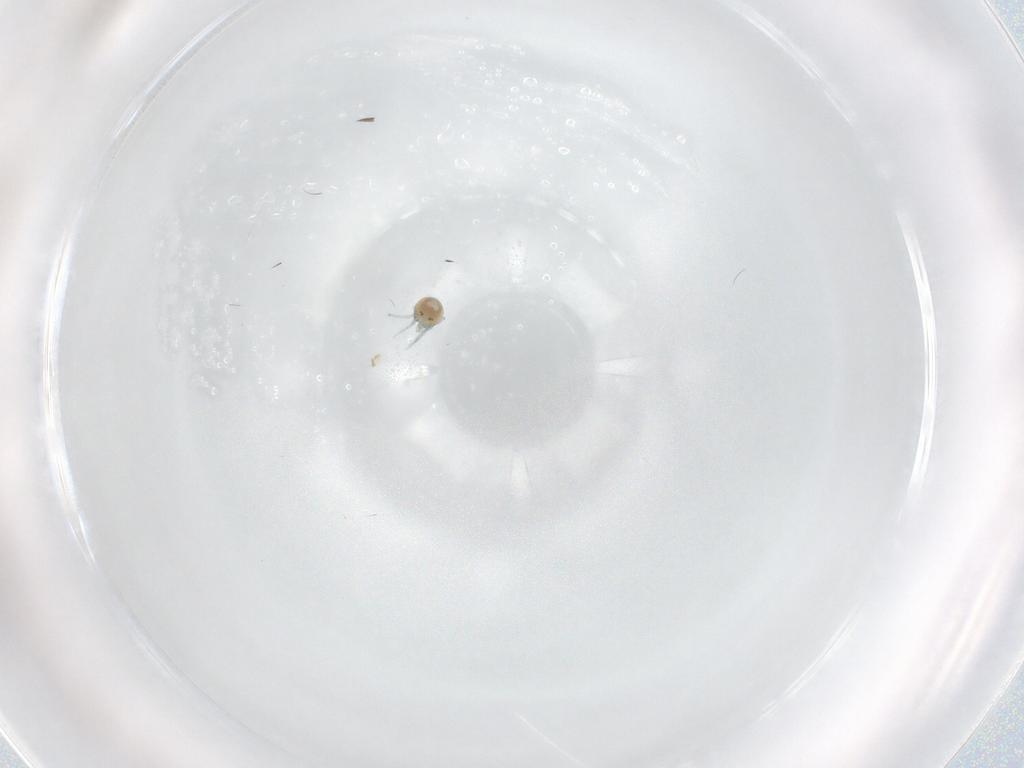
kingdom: Animalia
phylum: Arthropoda
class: Arachnida
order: Trombidiformes
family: Limnesiidae
